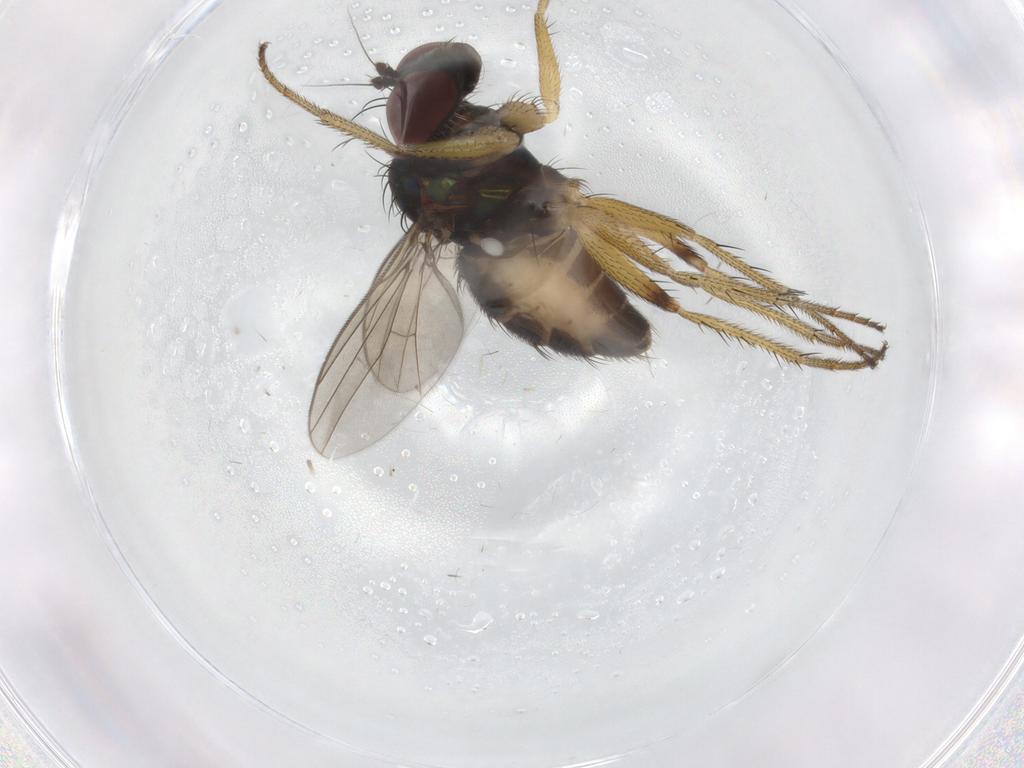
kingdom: Animalia
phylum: Arthropoda
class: Insecta
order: Diptera
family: Dolichopodidae
